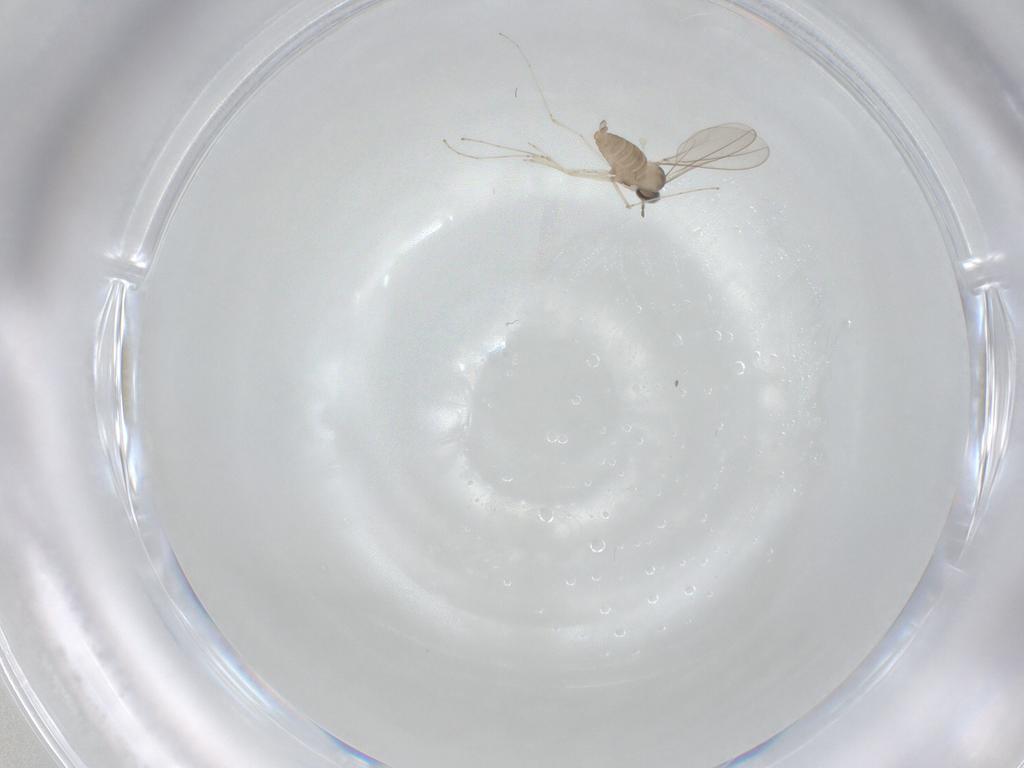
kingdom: Animalia
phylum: Arthropoda
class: Insecta
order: Diptera
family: Cecidomyiidae
